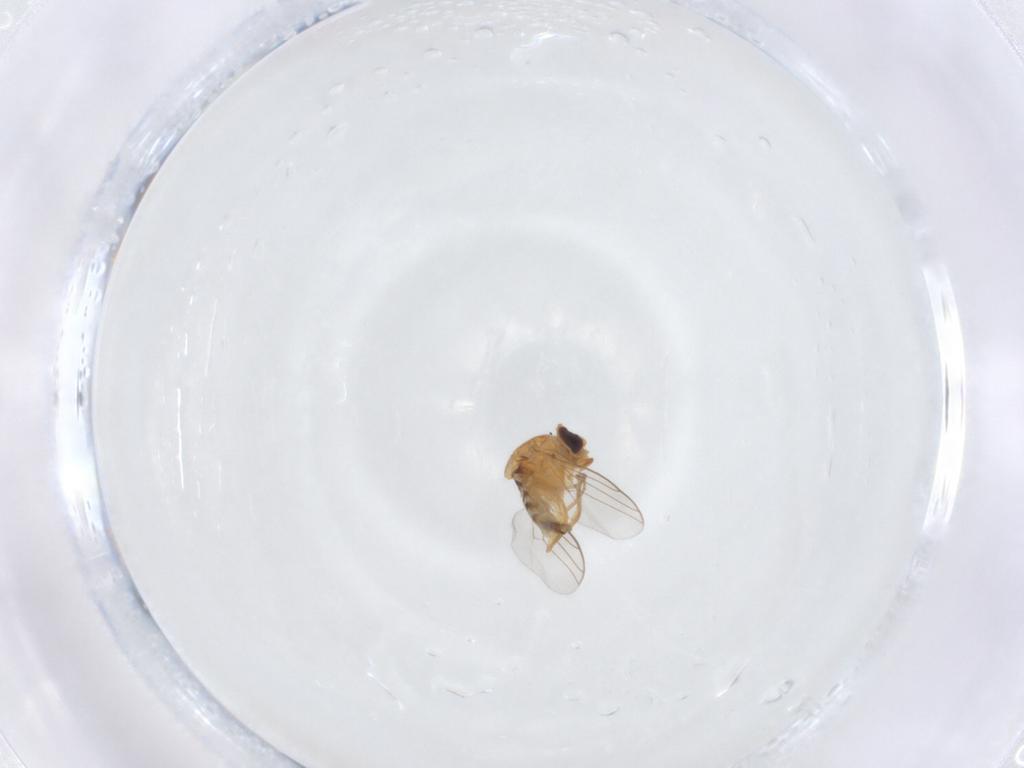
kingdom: Animalia
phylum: Arthropoda
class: Insecta
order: Diptera
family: Chloropidae
